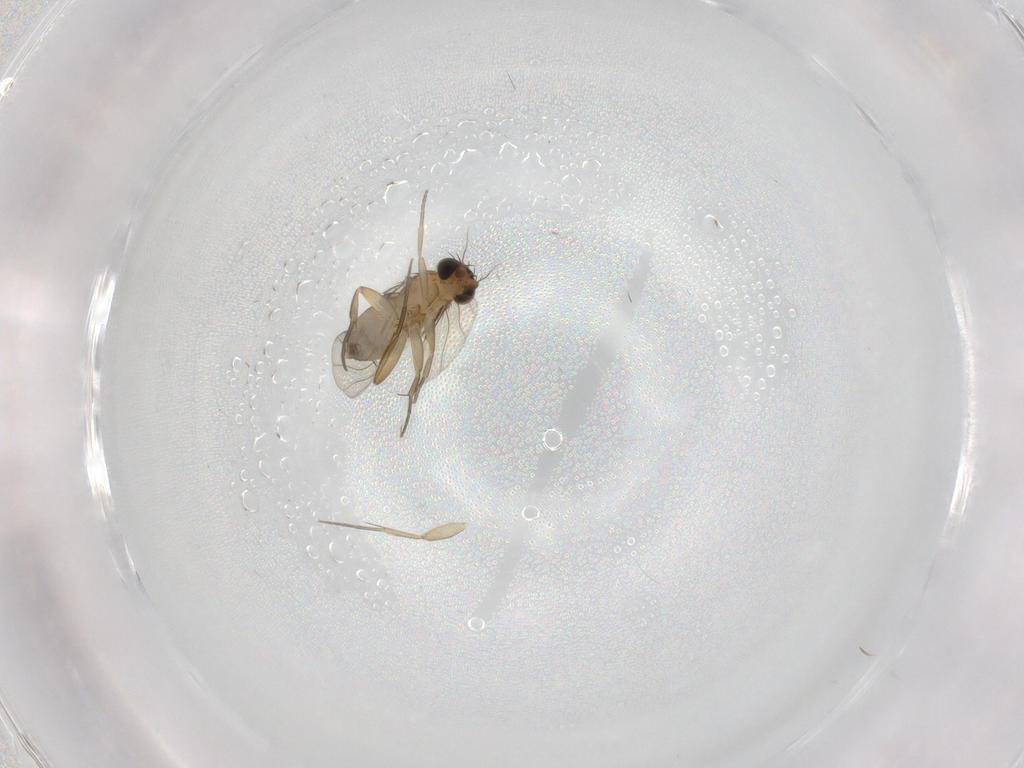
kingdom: Animalia
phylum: Arthropoda
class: Insecta
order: Diptera
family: Phoridae
